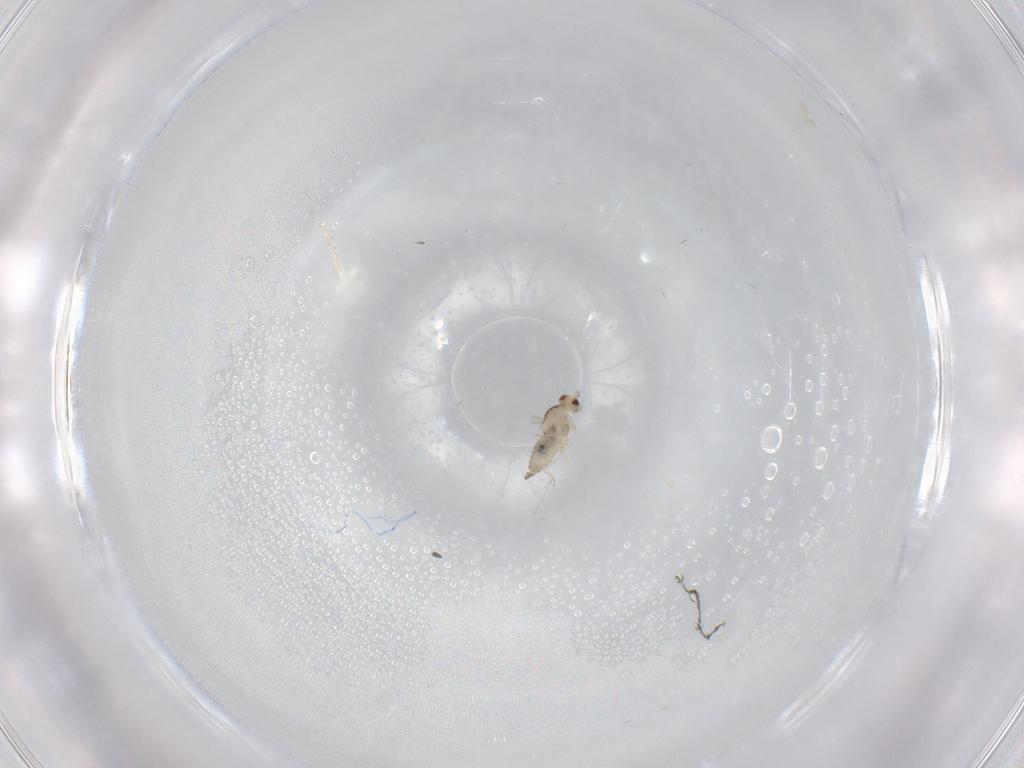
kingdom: Animalia
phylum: Arthropoda
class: Insecta
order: Diptera
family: Cecidomyiidae
